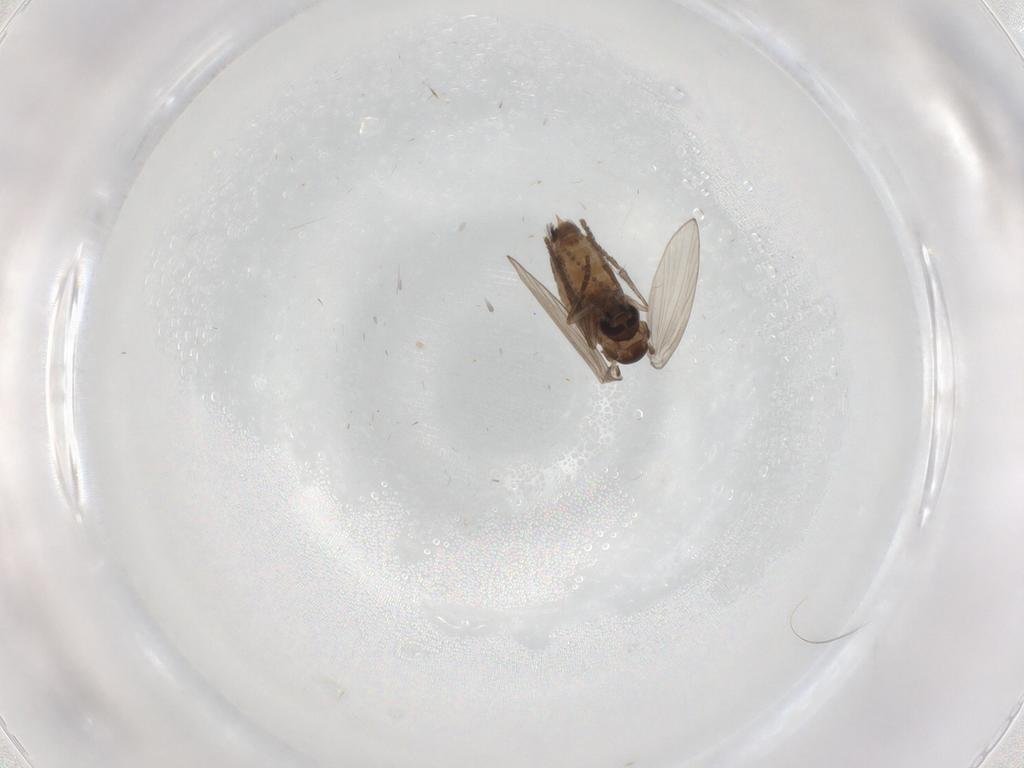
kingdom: Animalia
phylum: Arthropoda
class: Insecta
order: Diptera
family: Psychodidae
